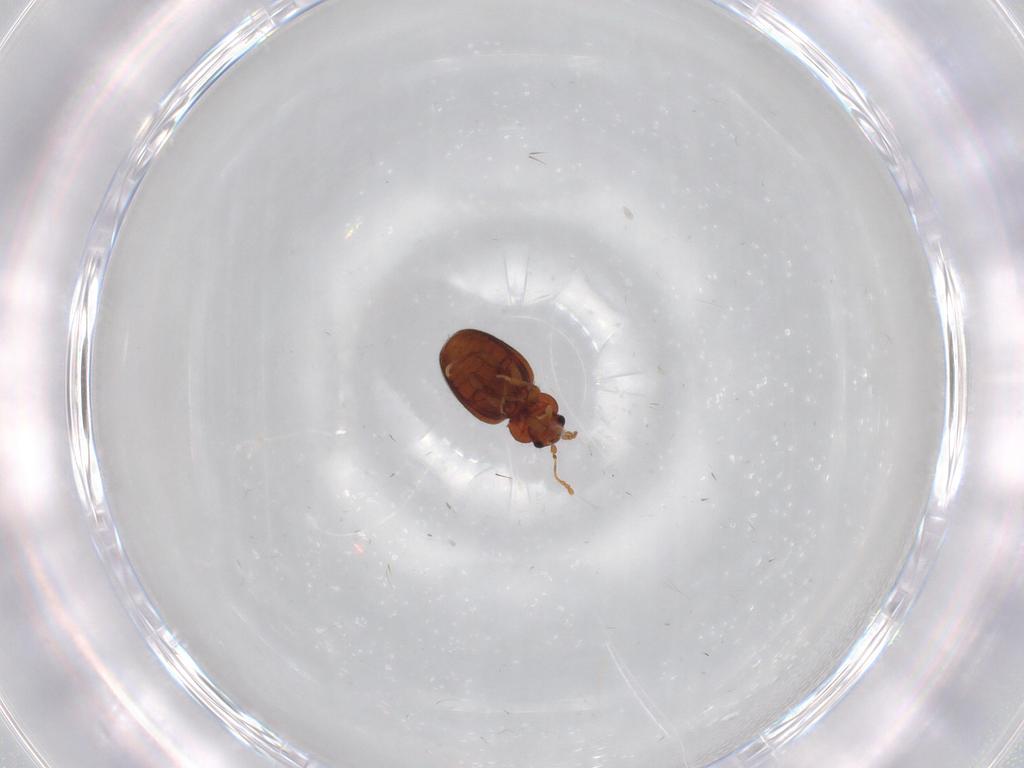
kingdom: Animalia
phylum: Arthropoda
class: Insecta
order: Coleoptera
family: Latridiidae
